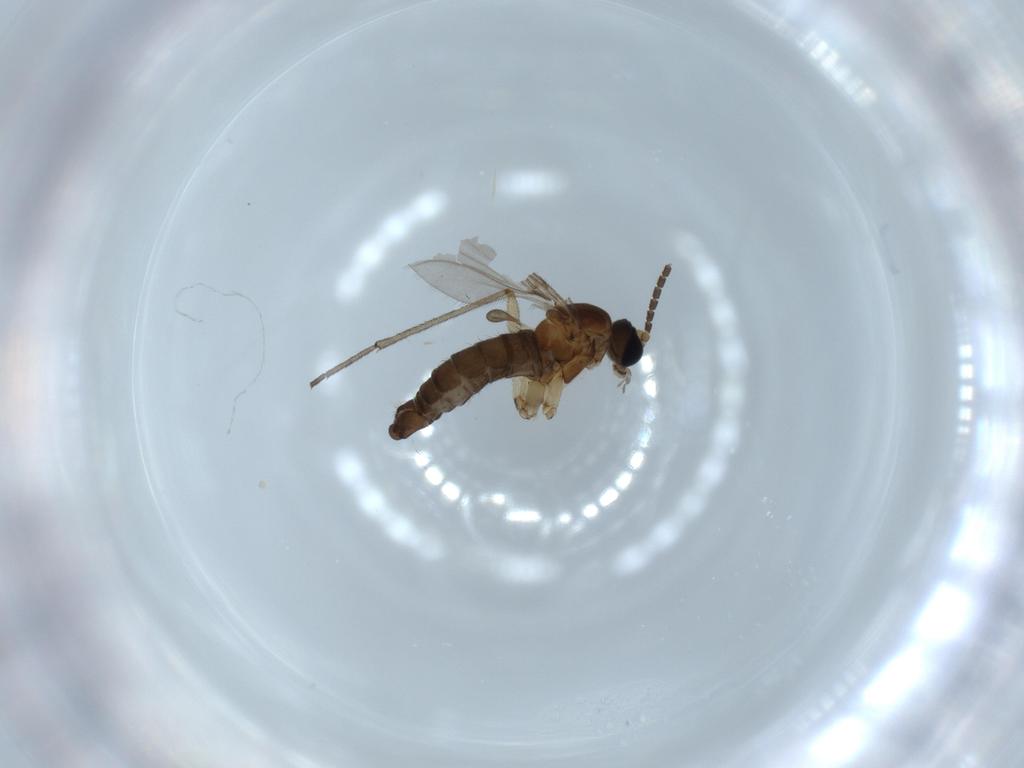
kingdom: Animalia
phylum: Arthropoda
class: Insecta
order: Diptera
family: Sciaridae
